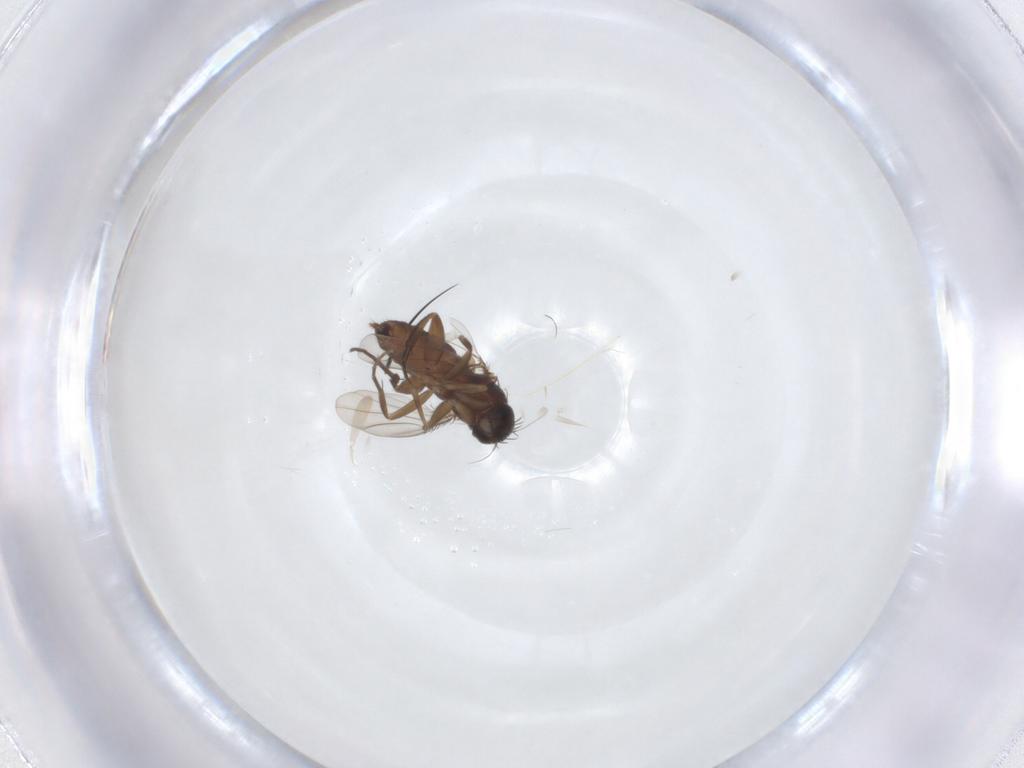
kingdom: Animalia
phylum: Arthropoda
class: Insecta
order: Diptera
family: Phoridae
